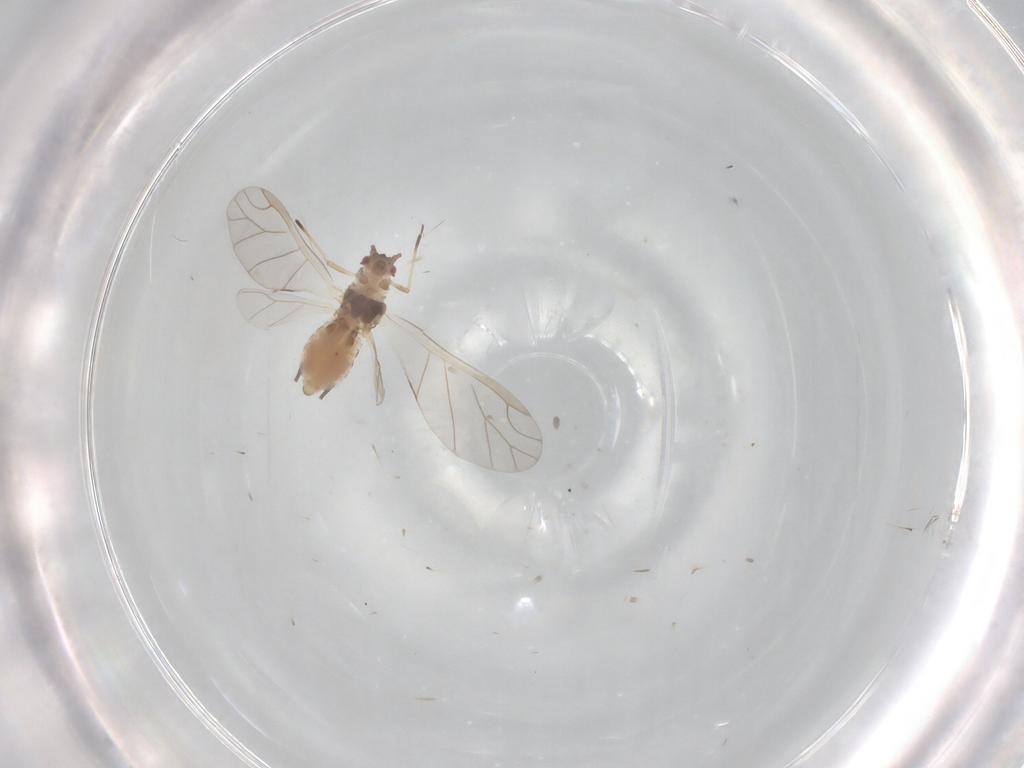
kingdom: Animalia
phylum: Arthropoda
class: Insecta
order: Hemiptera
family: Aphididae
